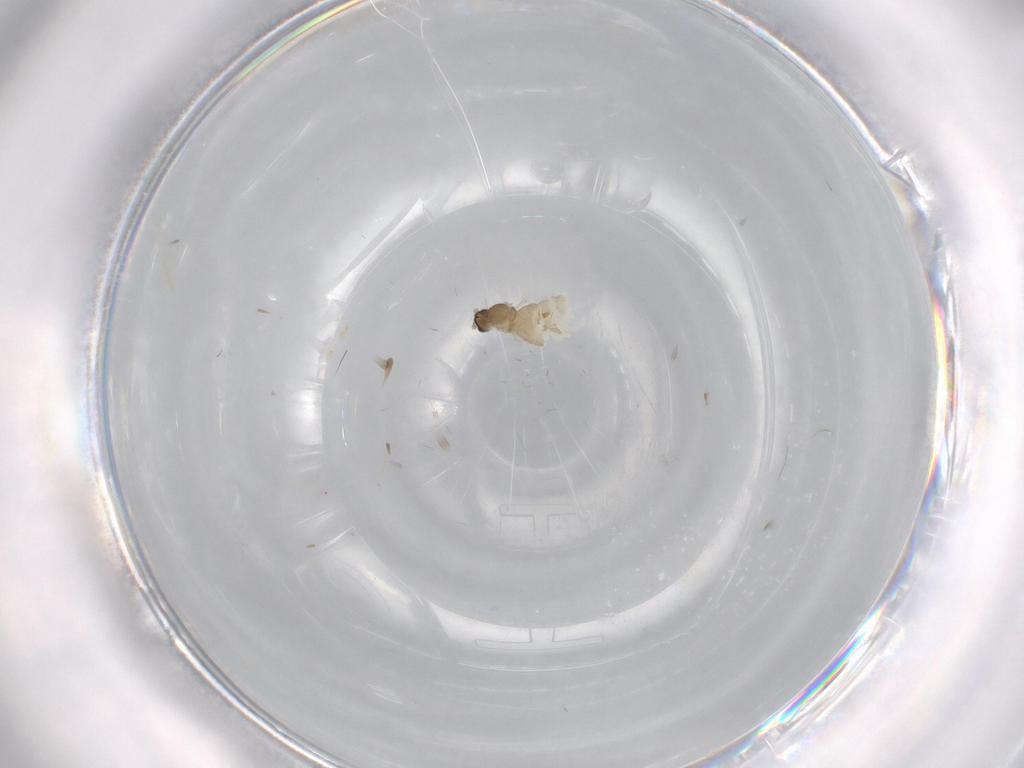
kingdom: Animalia
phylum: Arthropoda
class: Insecta
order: Diptera
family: Cecidomyiidae
